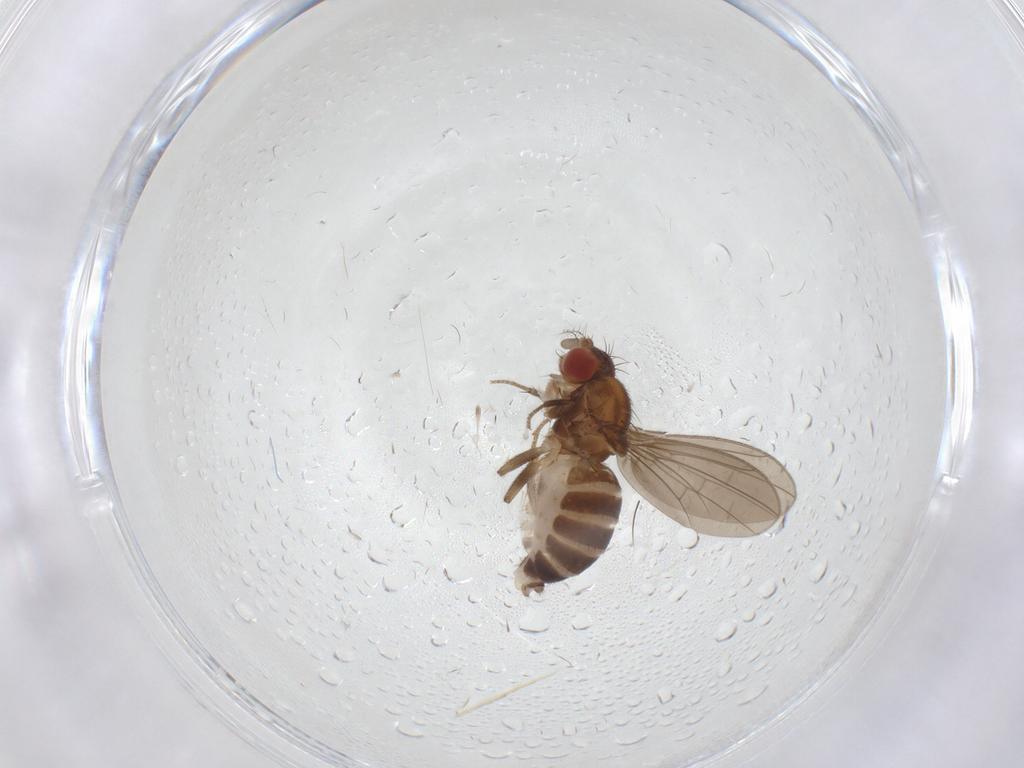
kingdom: Animalia
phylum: Arthropoda
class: Insecta
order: Diptera
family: Drosophilidae
